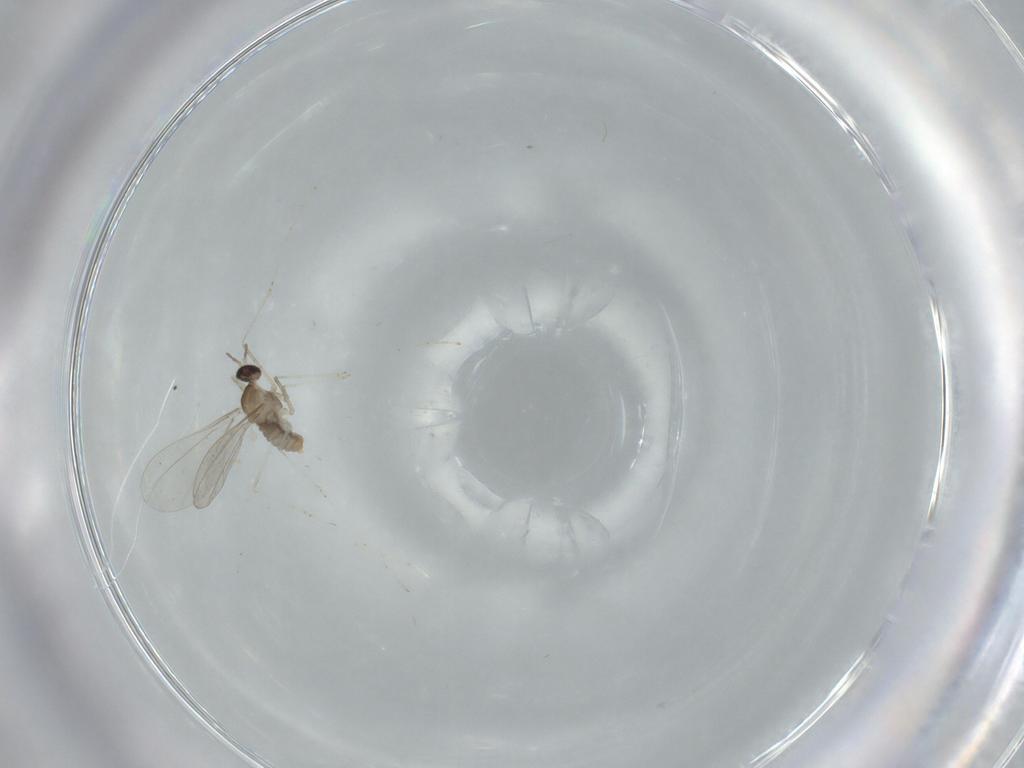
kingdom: Animalia
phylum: Arthropoda
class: Insecta
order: Diptera
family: Cecidomyiidae
